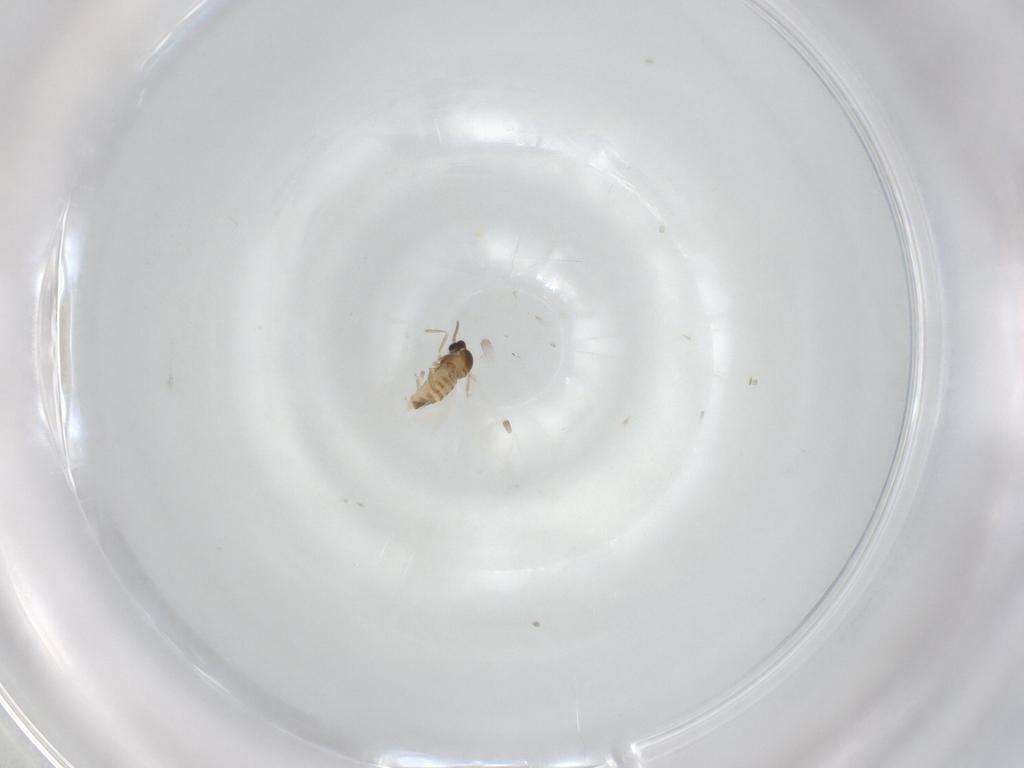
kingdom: Animalia
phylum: Arthropoda
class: Insecta
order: Diptera
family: Cecidomyiidae
